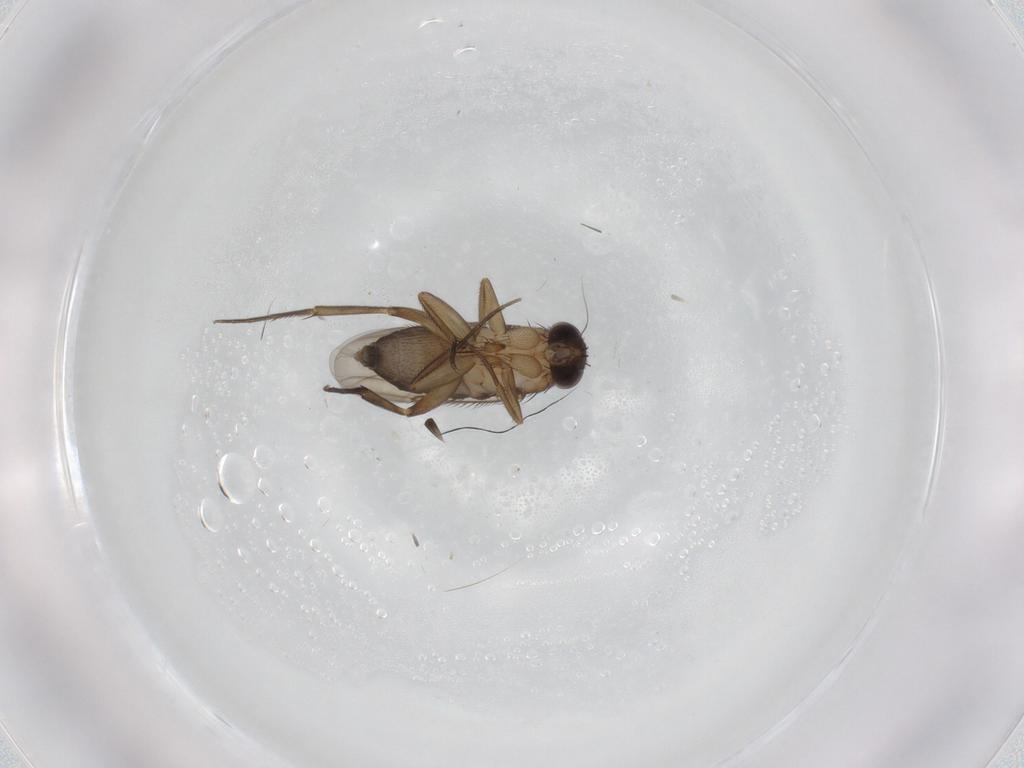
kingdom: Animalia
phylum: Arthropoda
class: Insecta
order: Diptera
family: Phoridae
